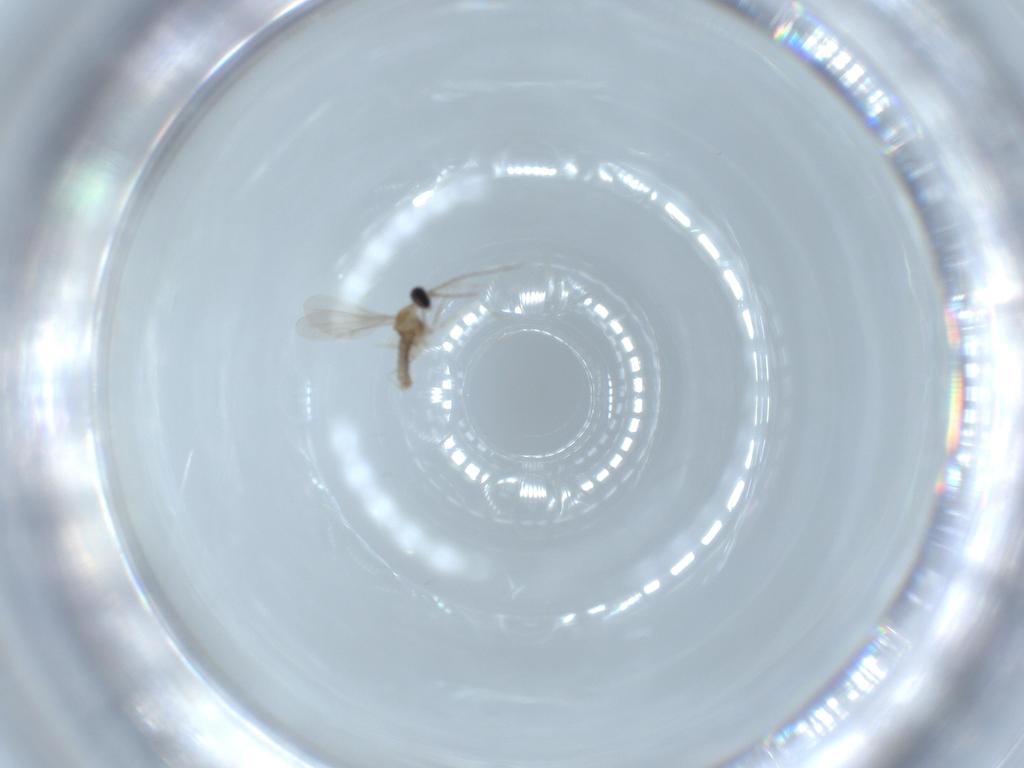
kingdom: Animalia
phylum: Arthropoda
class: Insecta
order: Diptera
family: Cecidomyiidae
